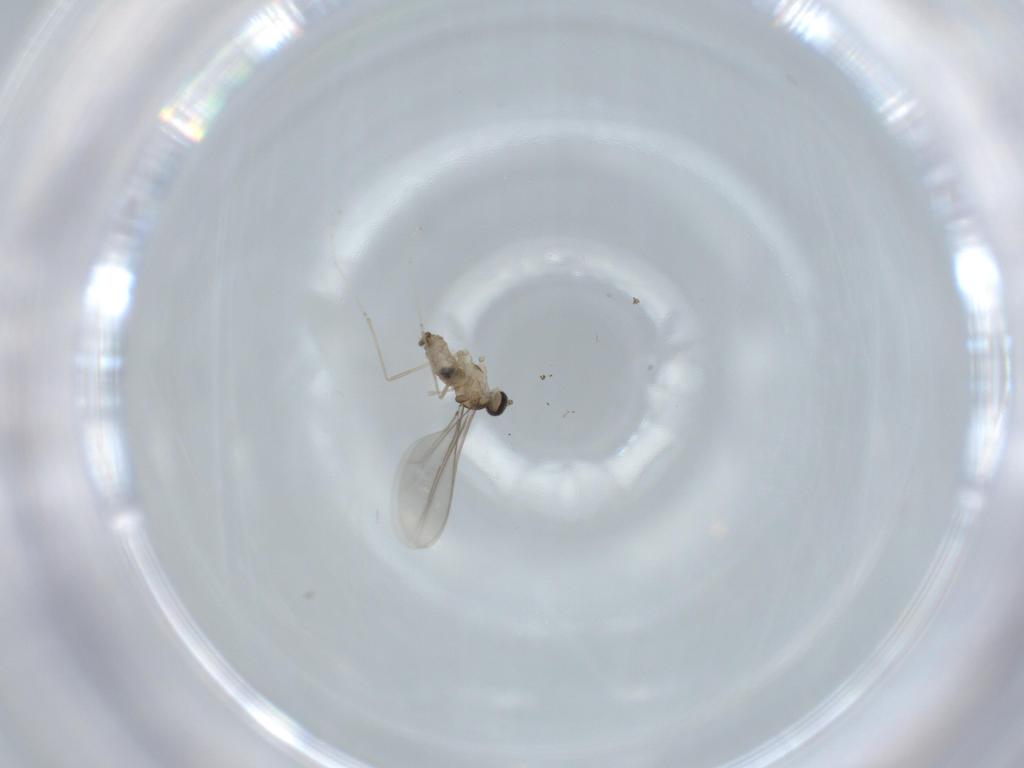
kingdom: Animalia
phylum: Arthropoda
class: Insecta
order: Diptera
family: Cecidomyiidae
